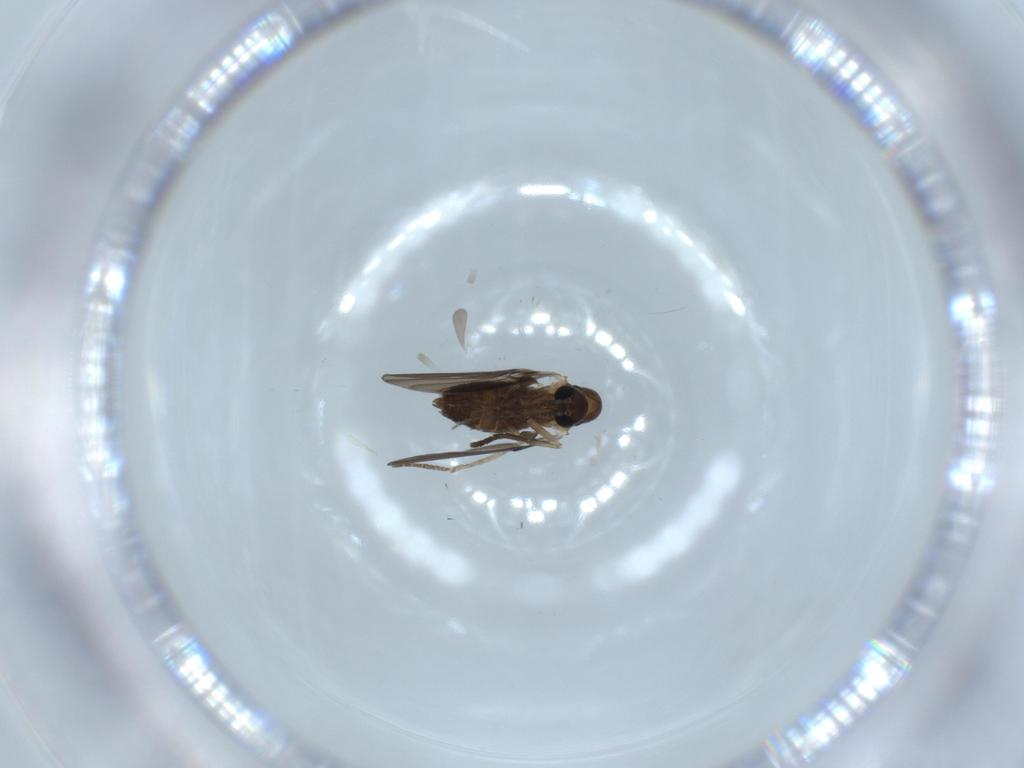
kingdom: Animalia
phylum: Arthropoda
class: Insecta
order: Diptera
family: Psychodidae
